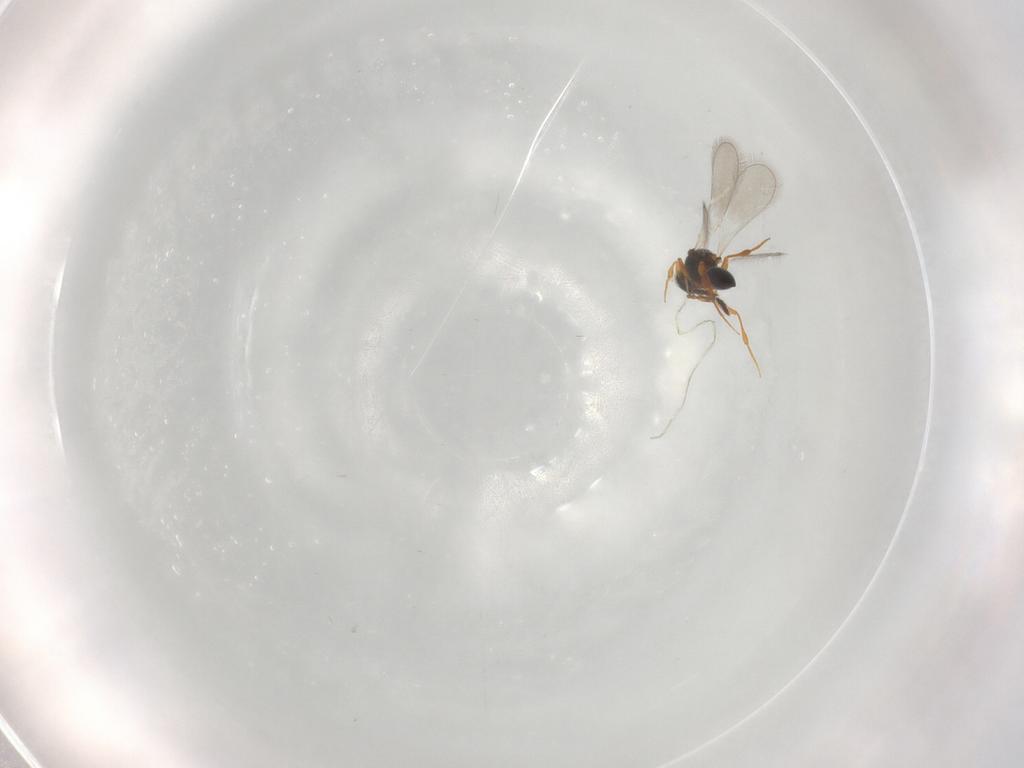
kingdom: Animalia
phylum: Arthropoda
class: Insecta
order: Hymenoptera
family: Platygastridae
